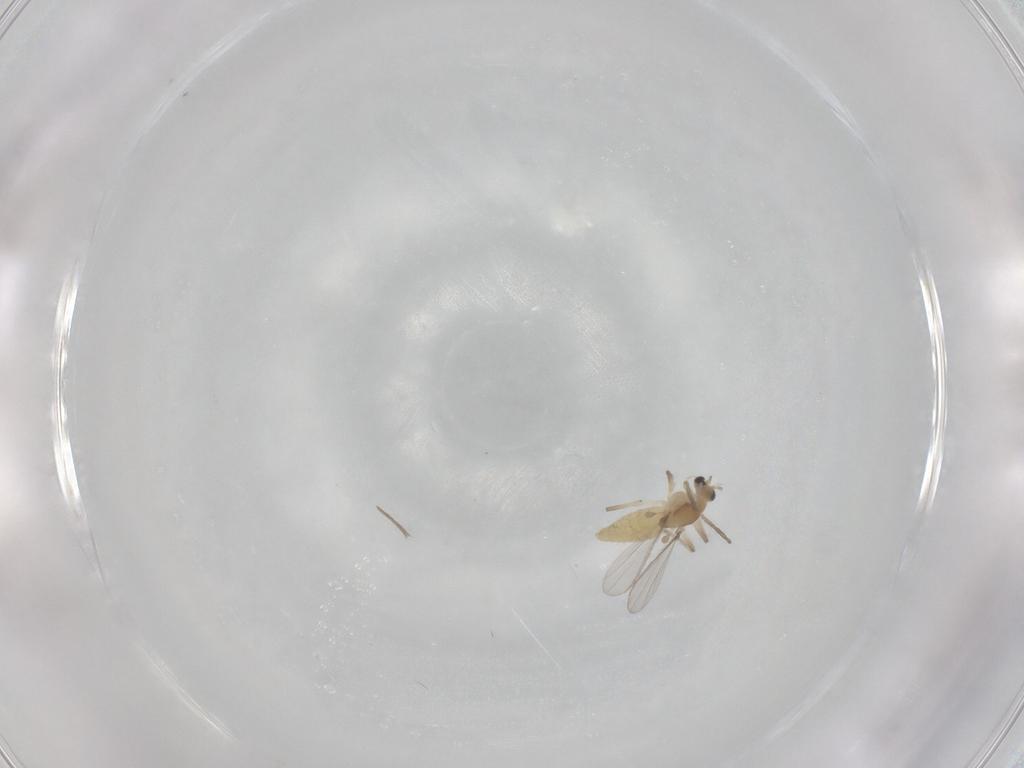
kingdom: Animalia
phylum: Arthropoda
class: Insecta
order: Diptera
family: Chironomidae
